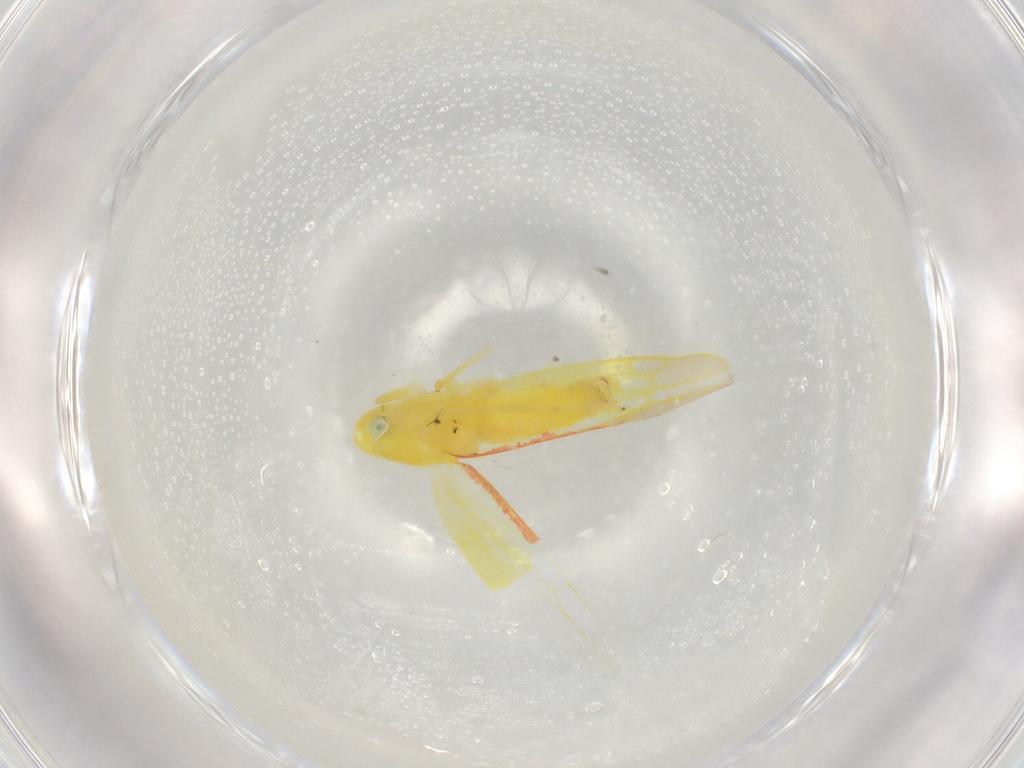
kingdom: Animalia
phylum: Arthropoda
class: Insecta
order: Hemiptera
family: Cicadellidae
